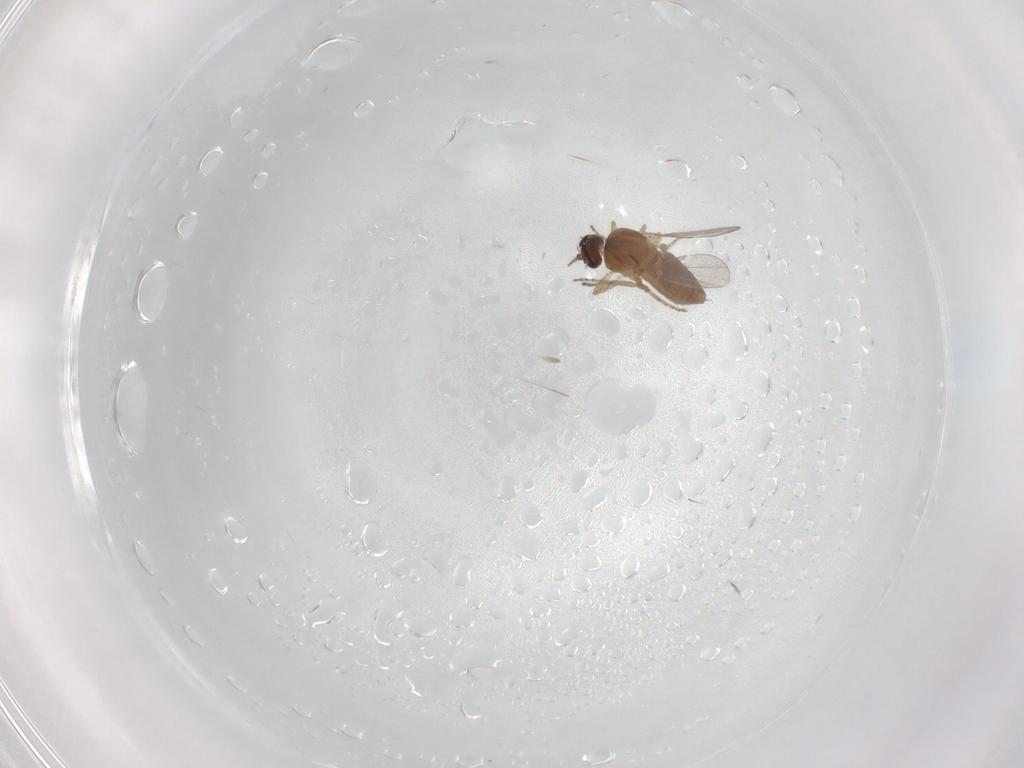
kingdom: Animalia
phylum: Arthropoda
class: Insecta
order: Diptera
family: Ceratopogonidae
